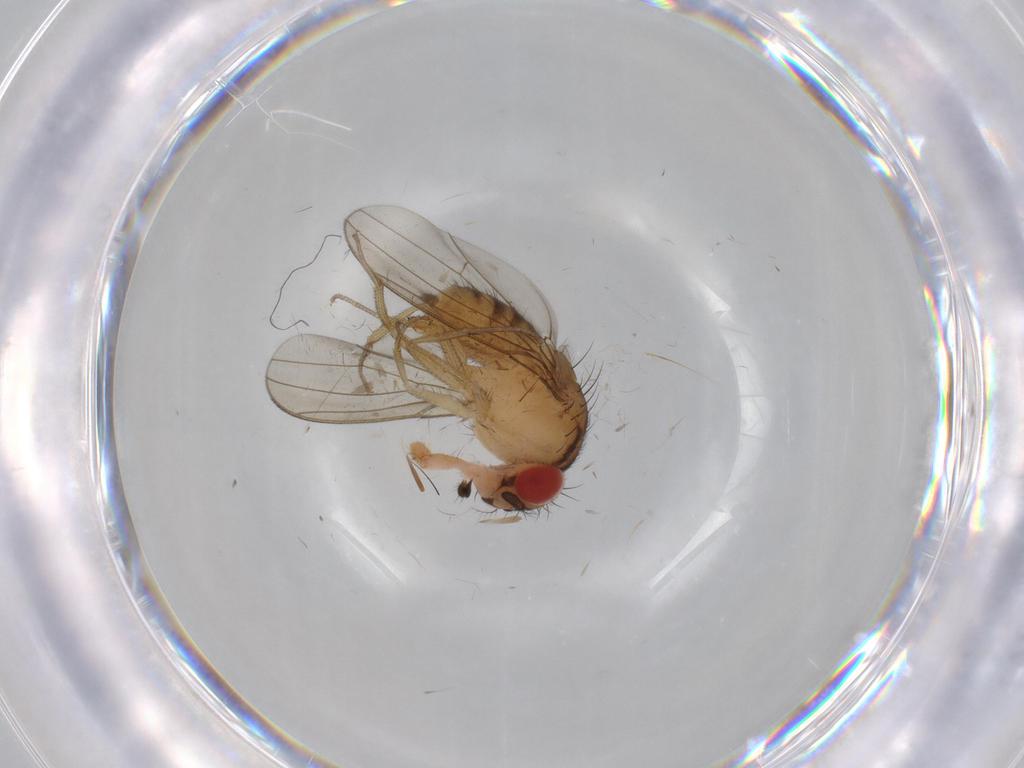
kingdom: Animalia
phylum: Arthropoda
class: Insecta
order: Diptera
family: Drosophilidae
